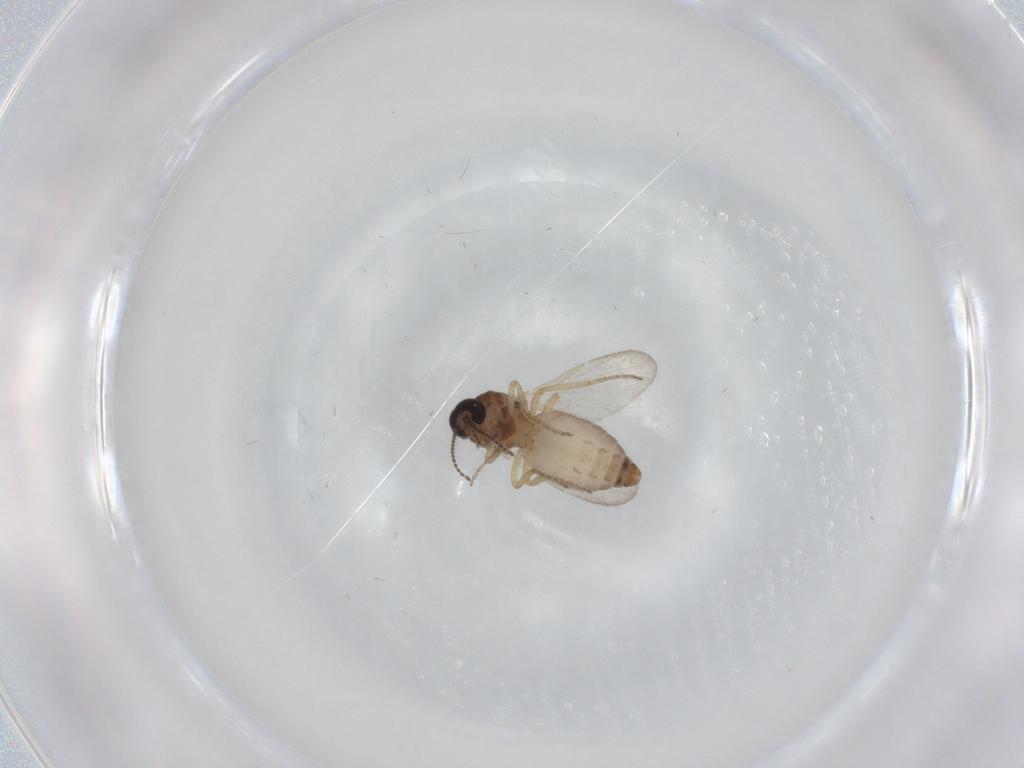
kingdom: Animalia
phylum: Arthropoda
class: Insecta
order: Diptera
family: Ceratopogonidae
